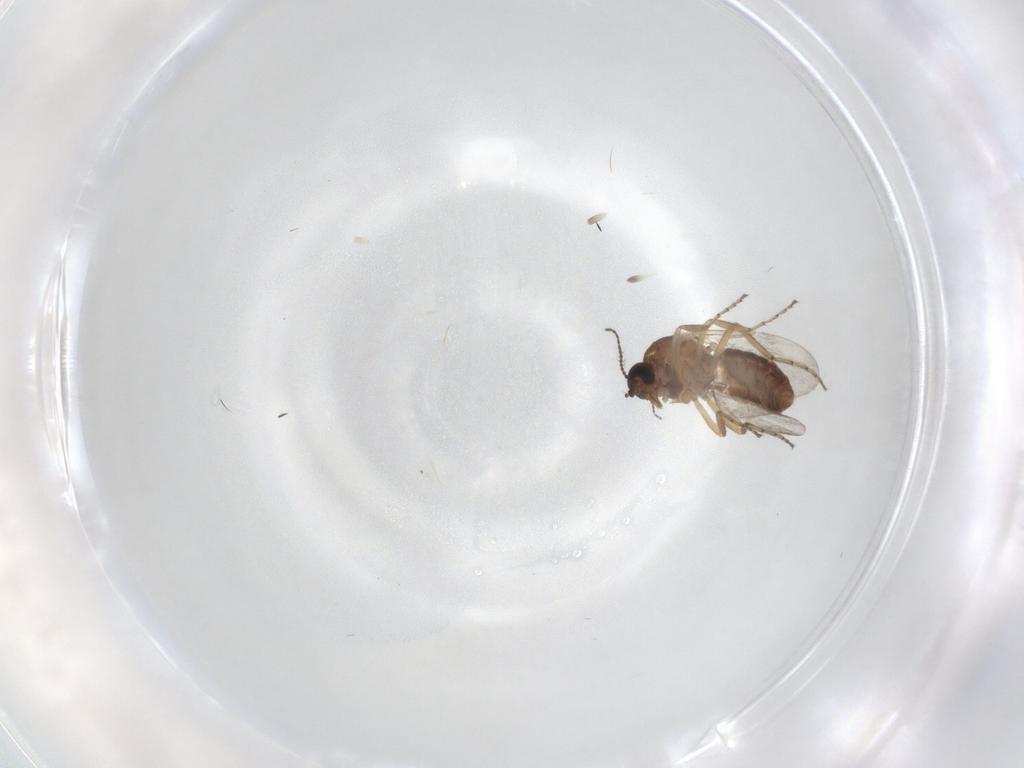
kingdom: Animalia
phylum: Arthropoda
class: Insecta
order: Diptera
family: Ceratopogonidae
